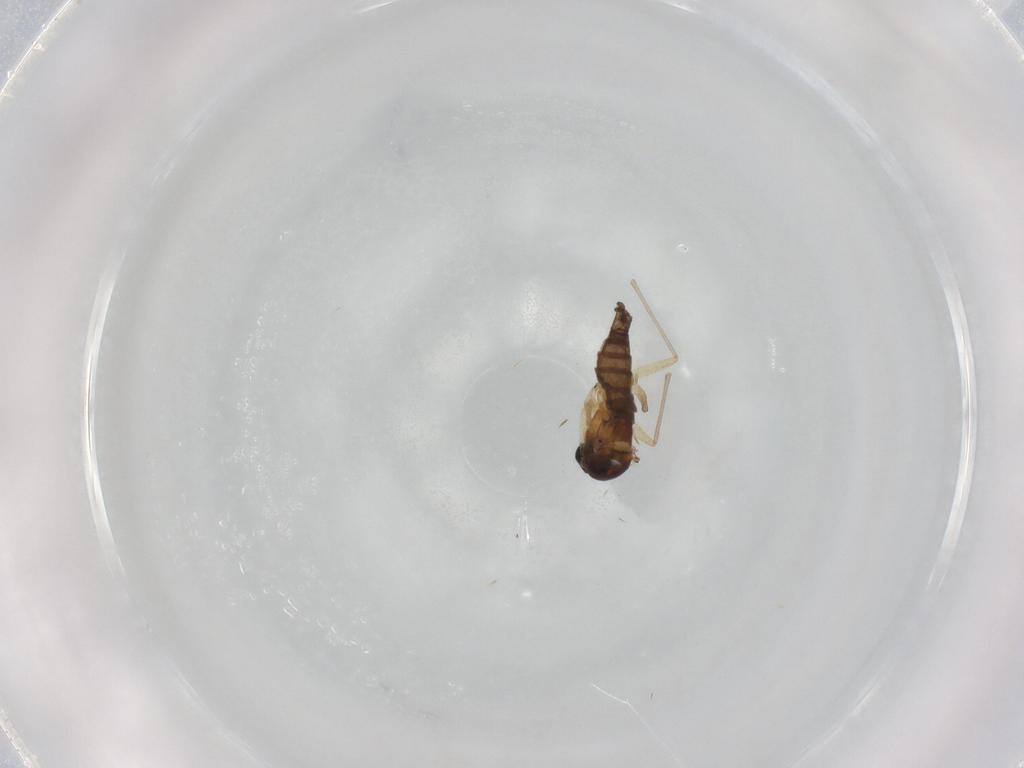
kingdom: Animalia
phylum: Arthropoda
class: Insecta
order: Diptera
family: Sciaridae
